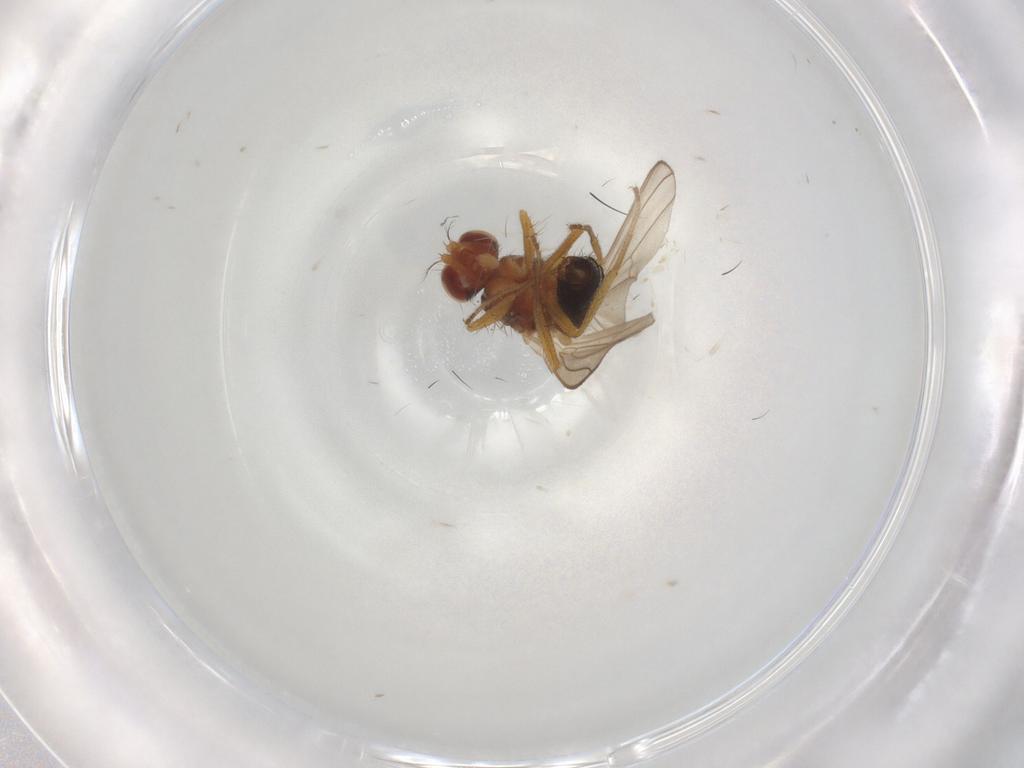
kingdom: Animalia
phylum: Arthropoda
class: Insecta
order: Diptera
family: Drosophilidae
